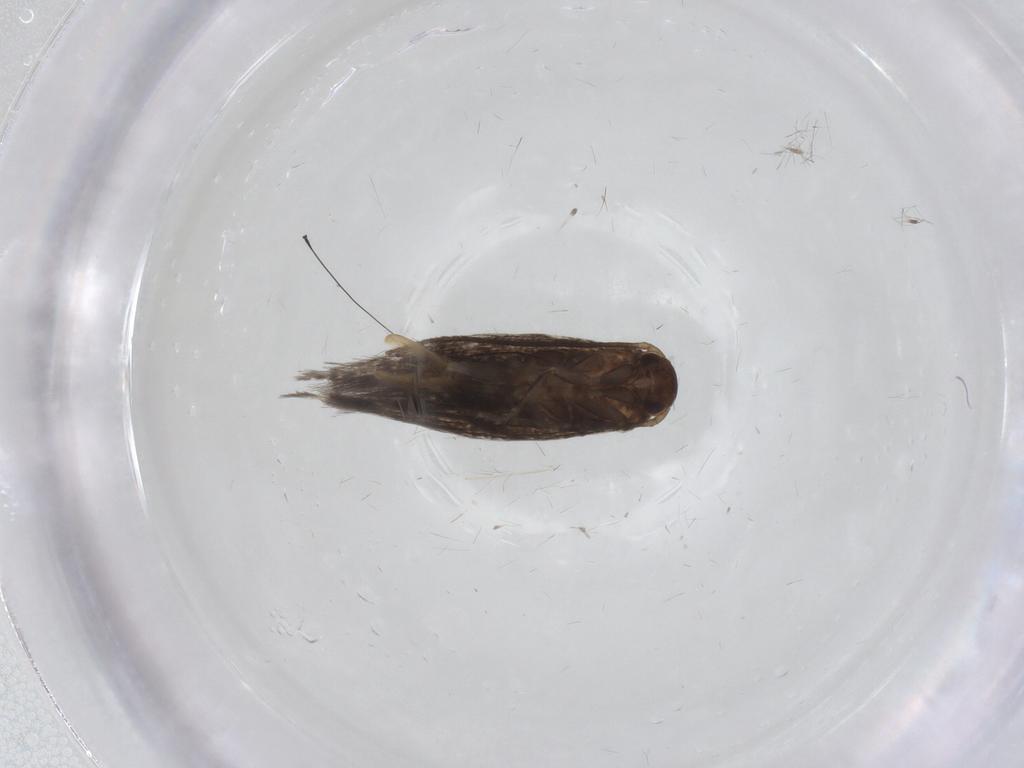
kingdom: Animalia
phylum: Arthropoda
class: Insecta
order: Lepidoptera
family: Elachistidae
